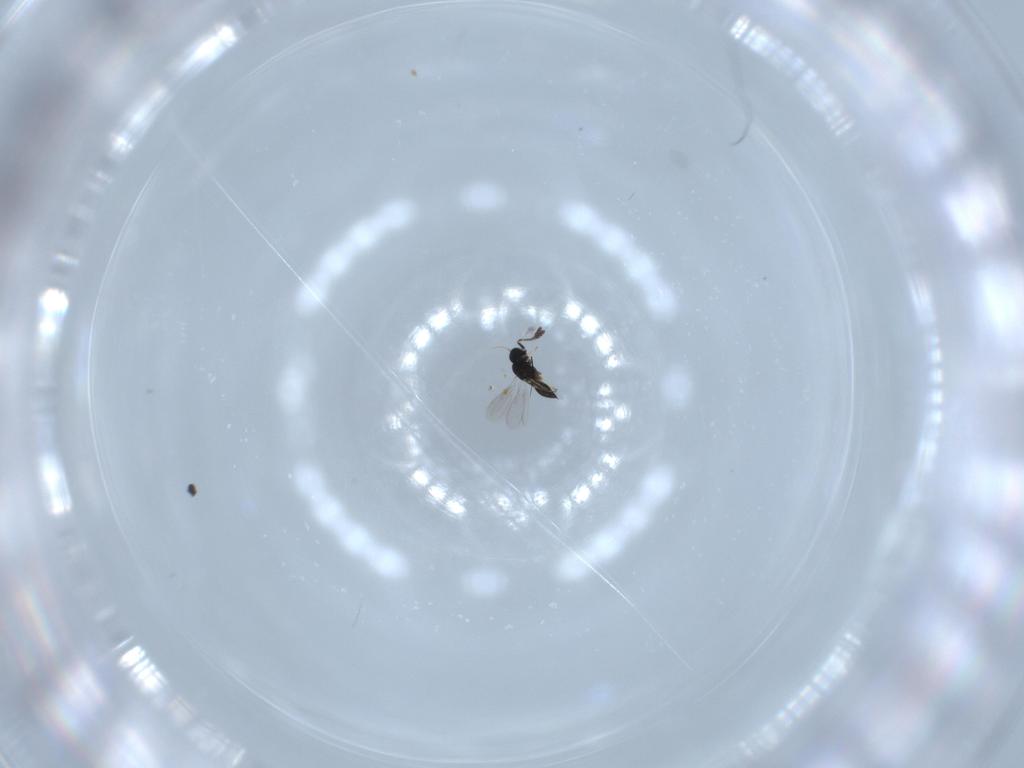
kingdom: Animalia
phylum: Arthropoda
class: Insecta
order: Hymenoptera
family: Scelionidae
